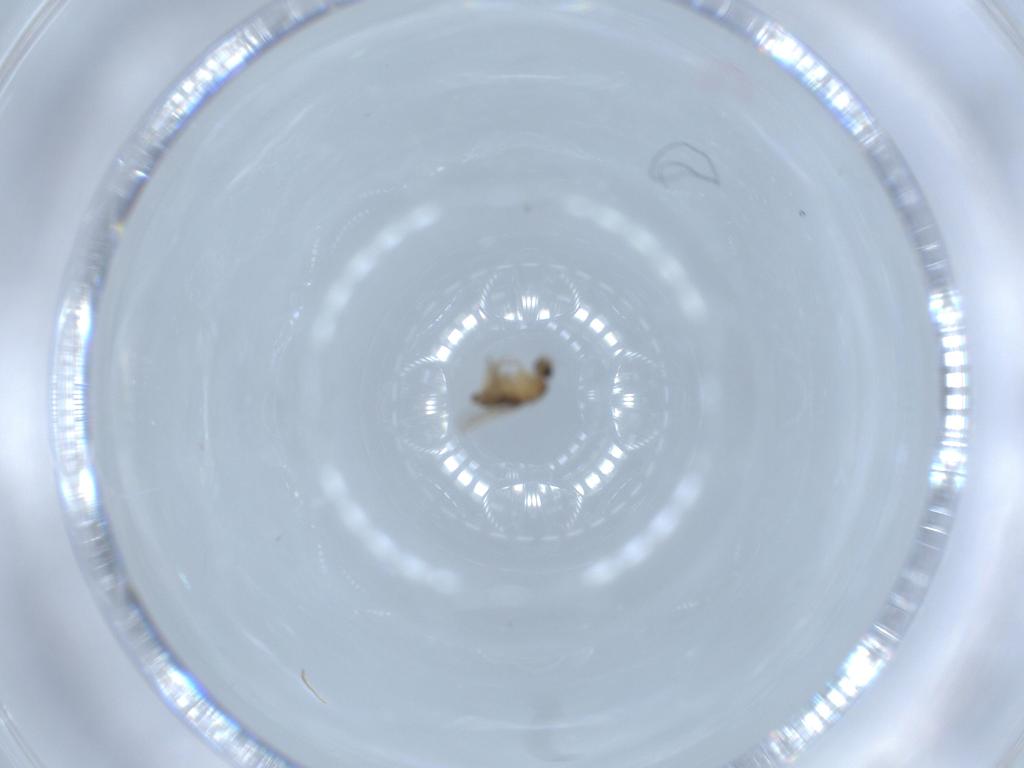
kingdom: Animalia
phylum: Arthropoda
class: Insecta
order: Diptera
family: Phoridae
